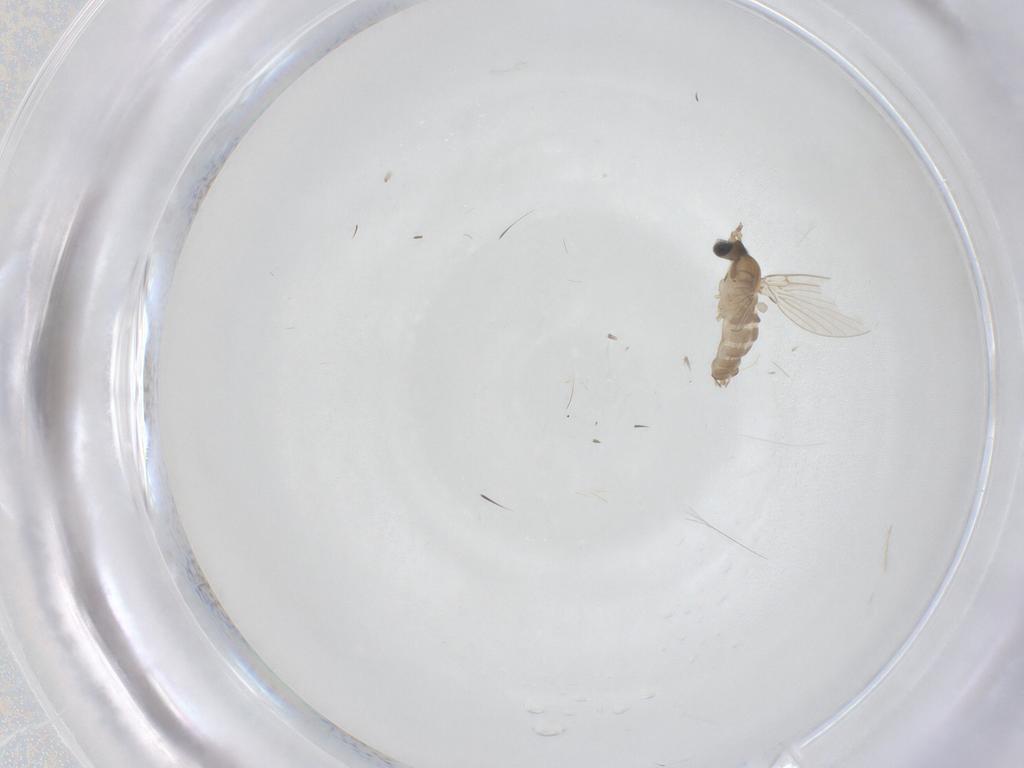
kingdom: Animalia
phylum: Arthropoda
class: Insecta
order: Diptera
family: Psychodidae
